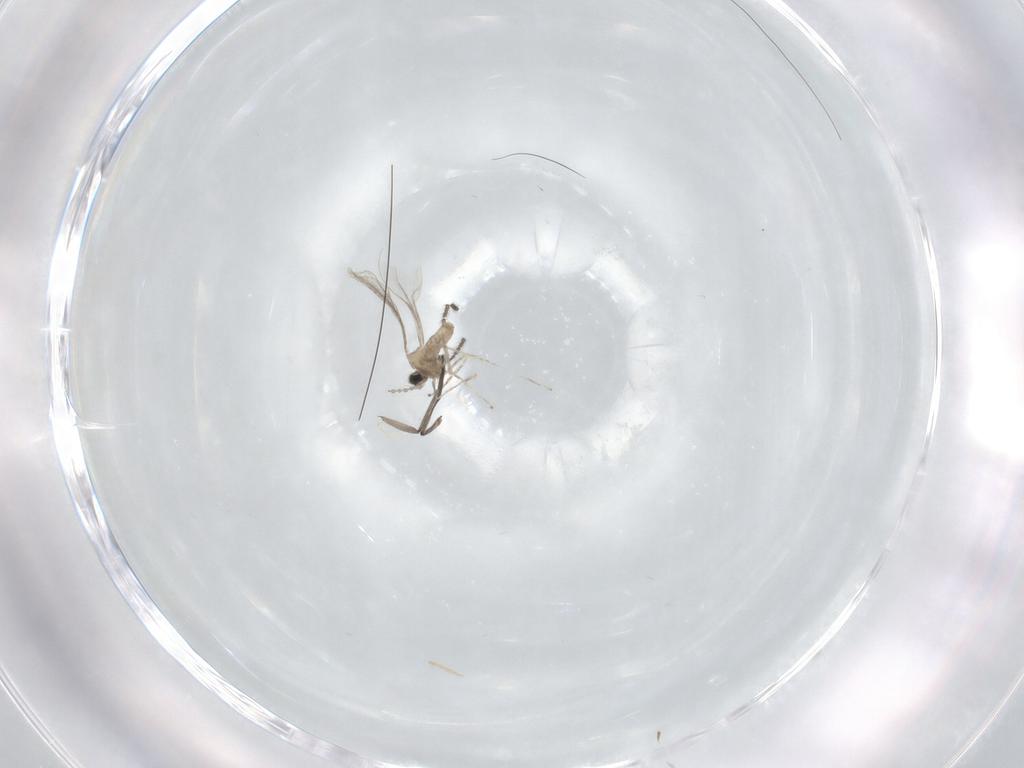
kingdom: Animalia
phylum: Arthropoda
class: Insecta
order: Diptera
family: Sciaridae
